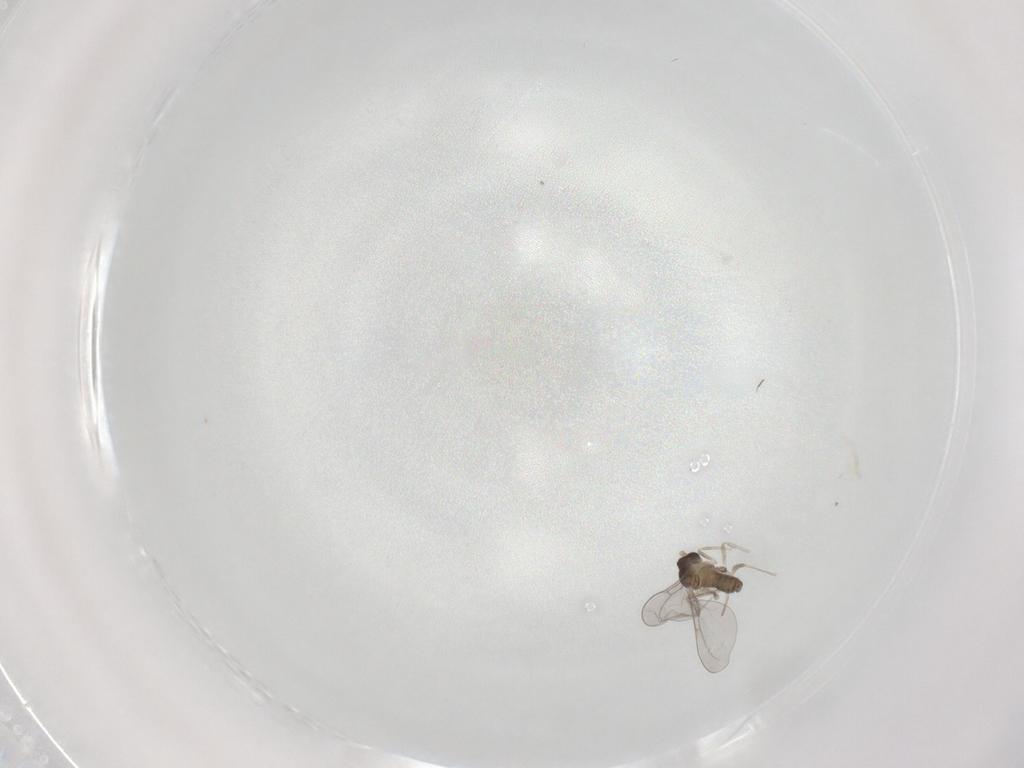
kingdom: Animalia
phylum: Arthropoda
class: Insecta
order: Diptera
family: Cecidomyiidae
